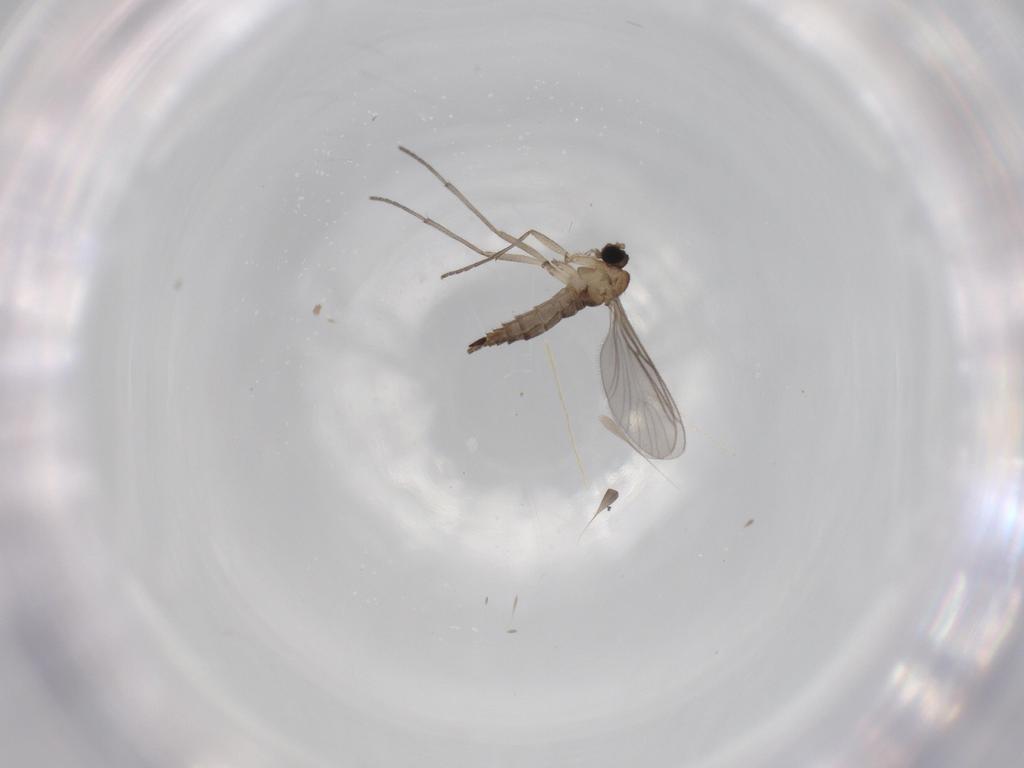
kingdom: Animalia
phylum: Arthropoda
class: Insecta
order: Diptera
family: Sciaridae
